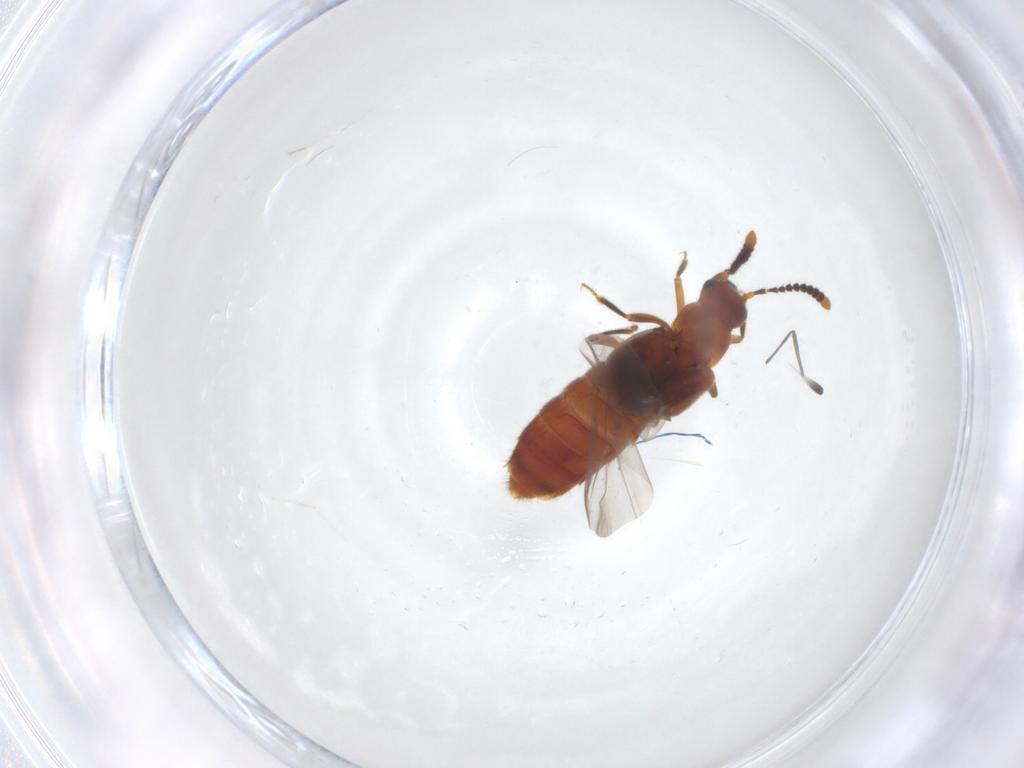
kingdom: Animalia
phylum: Arthropoda
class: Insecta
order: Coleoptera
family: Staphylinidae
